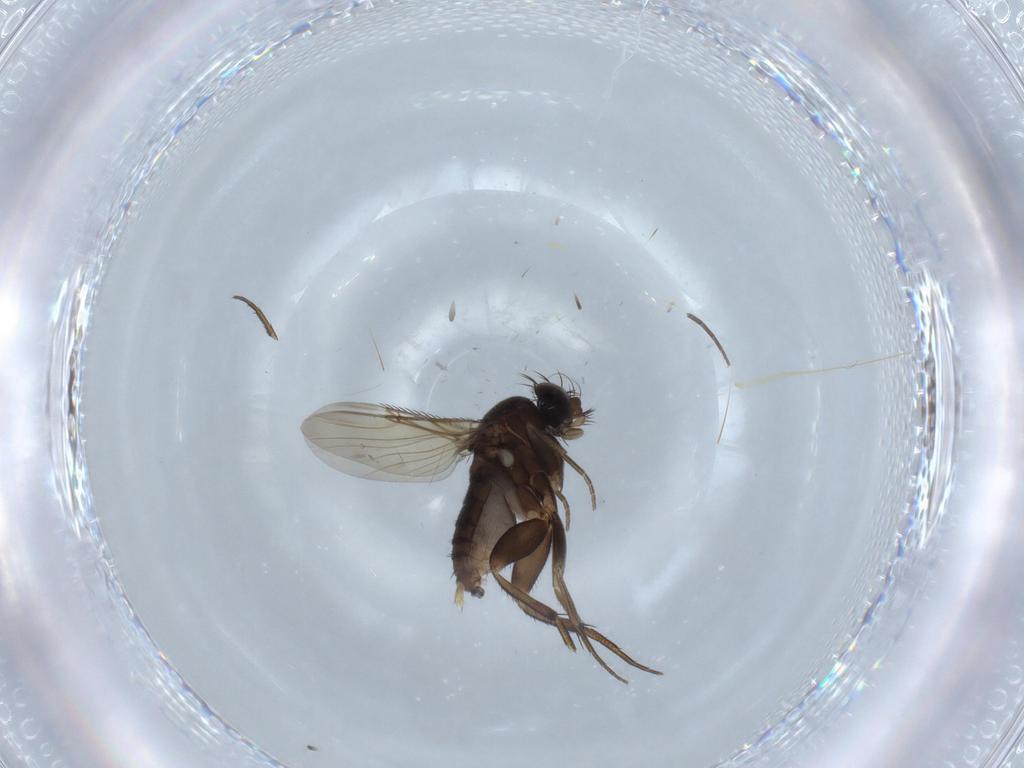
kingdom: Animalia
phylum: Arthropoda
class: Insecta
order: Diptera
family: Phoridae
